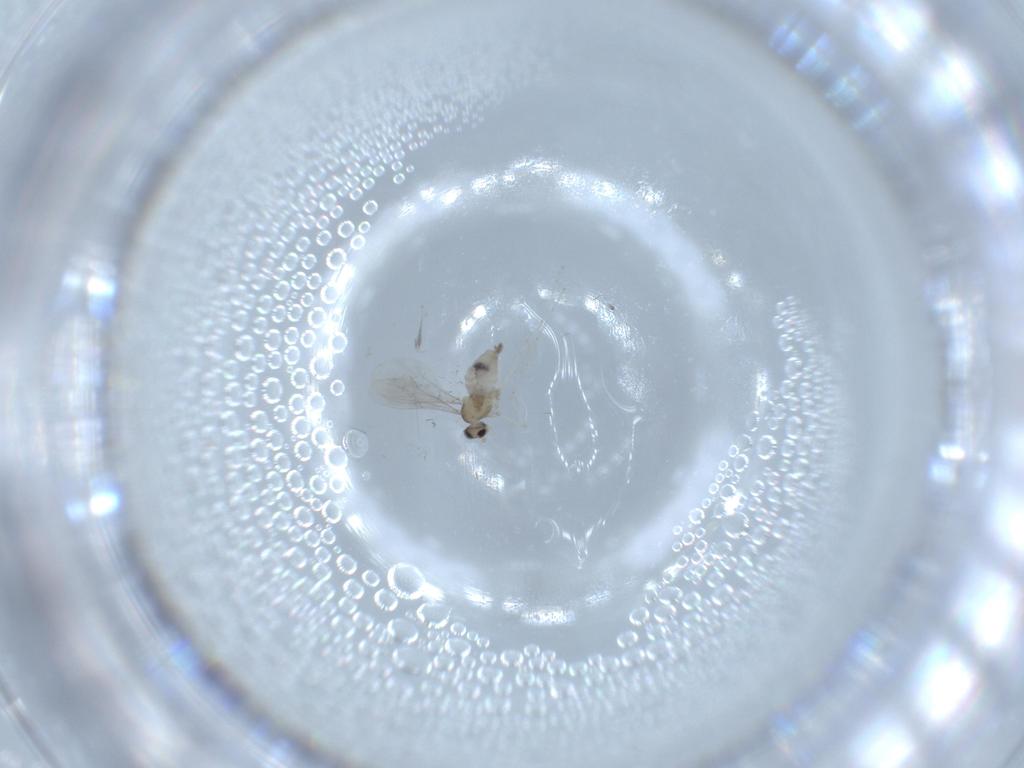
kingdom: Animalia
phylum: Arthropoda
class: Insecta
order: Diptera
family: Cecidomyiidae
